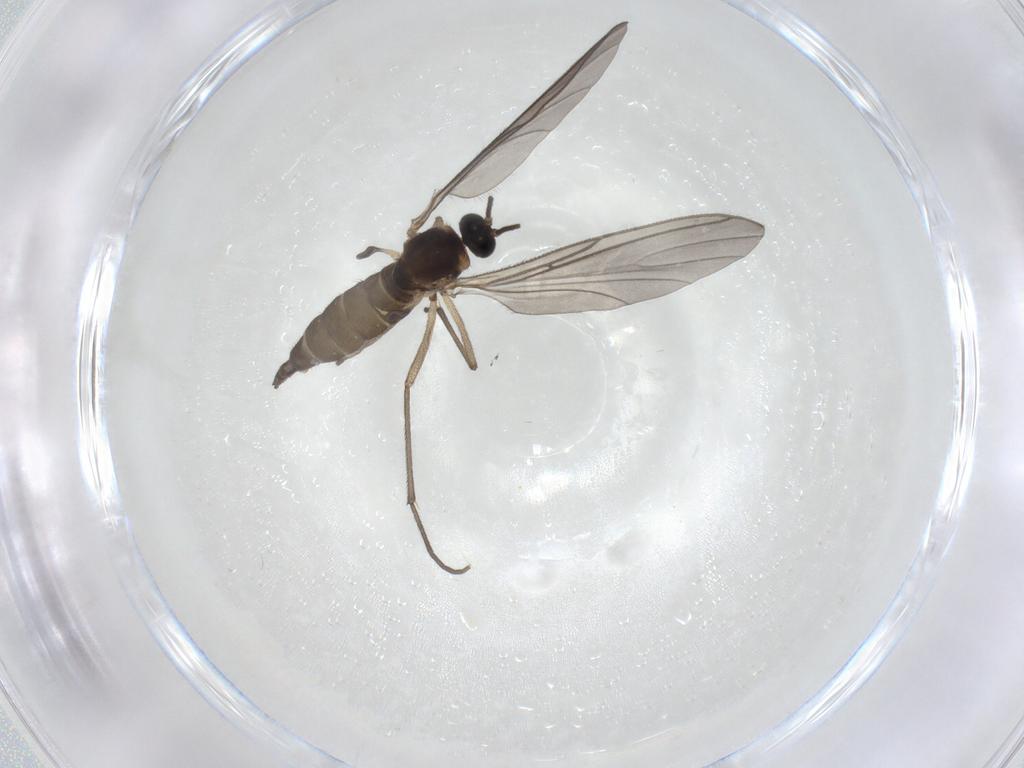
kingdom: Animalia
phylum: Arthropoda
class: Insecta
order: Diptera
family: Sciaridae
